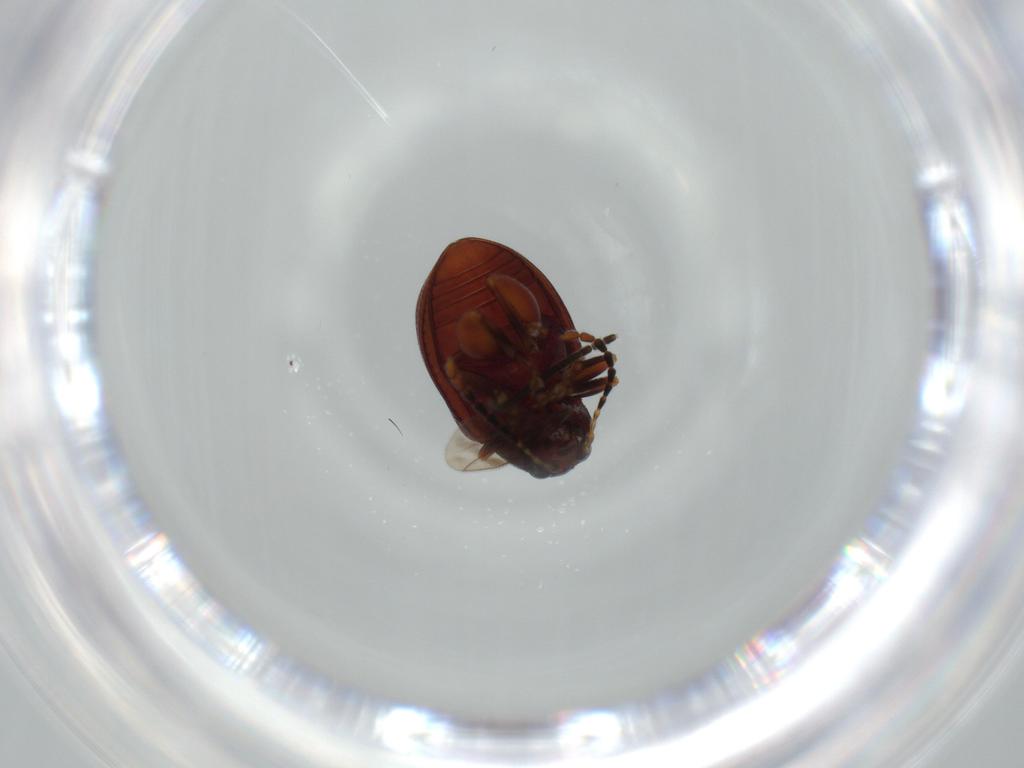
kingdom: Animalia
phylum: Arthropoda
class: Insecta
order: Coleoptera
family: Chrysomelidae
